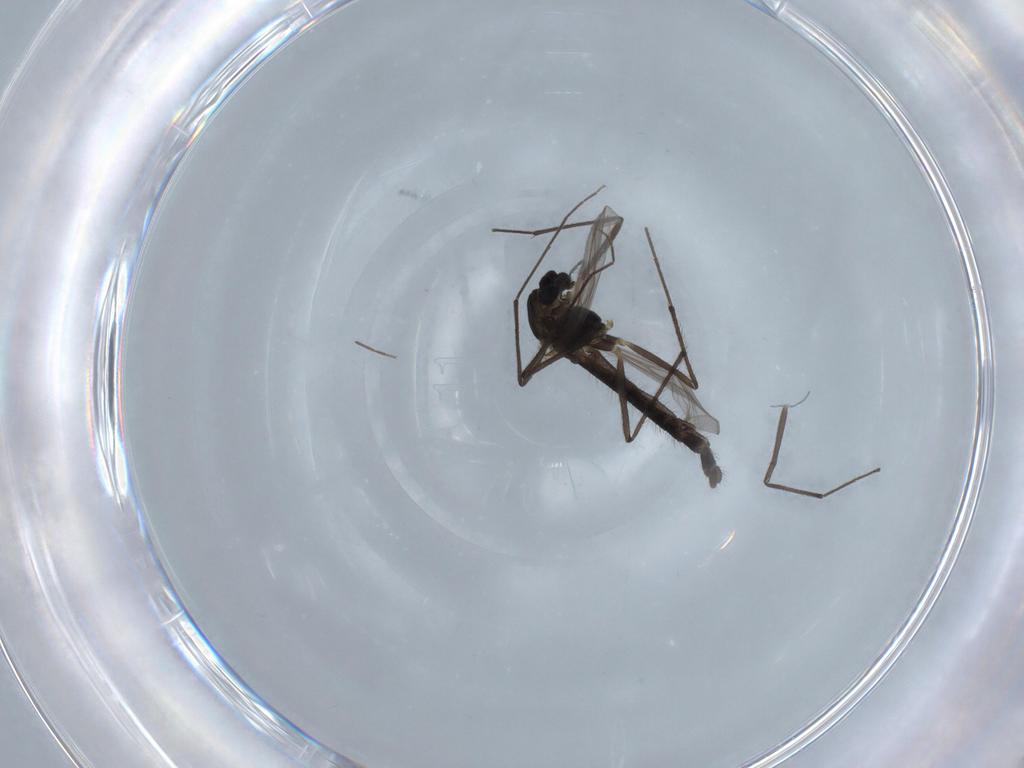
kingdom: Animalia
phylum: Arthropoda
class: Insecta
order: Diptera
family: Chironomidae
